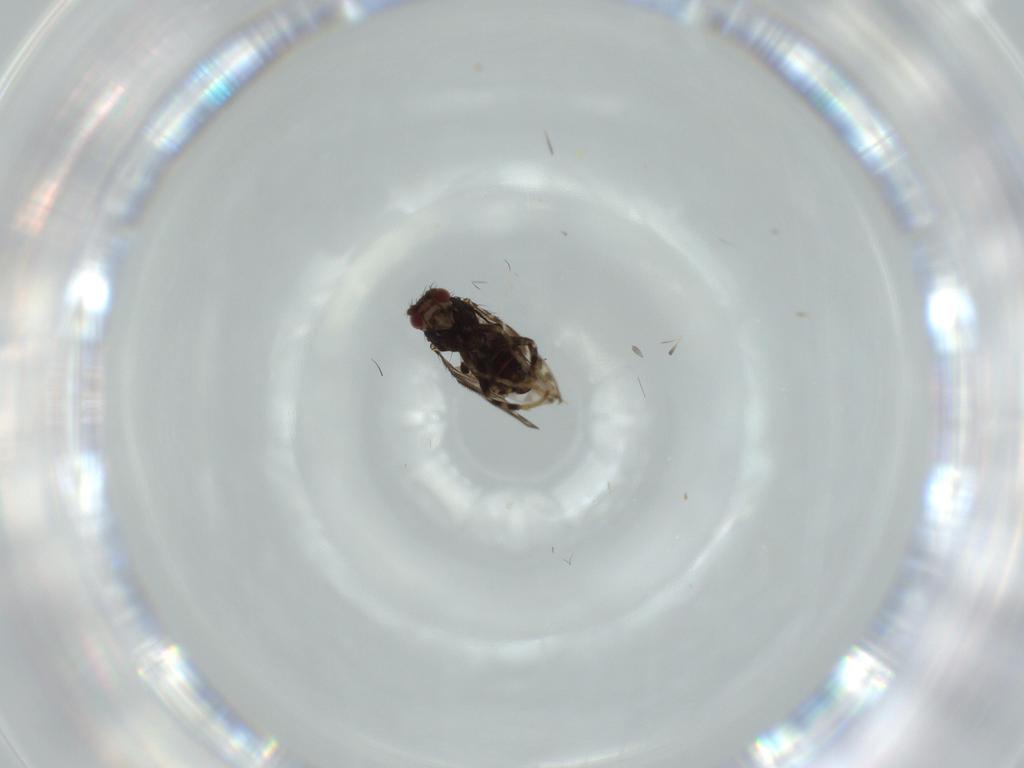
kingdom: Animalia
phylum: Arthropoda
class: Insecta
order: Diptera
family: Sphaeroceridae
